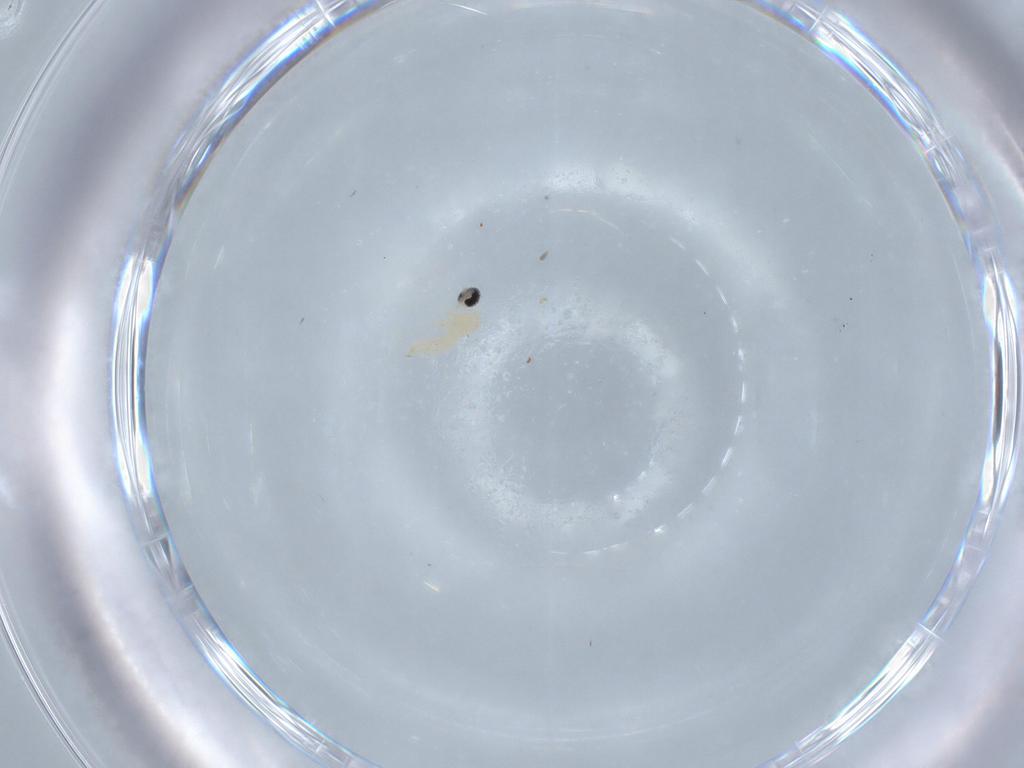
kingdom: Animalia
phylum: Arthropoda
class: Insecta
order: Diptera
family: Cecidomyiidae
